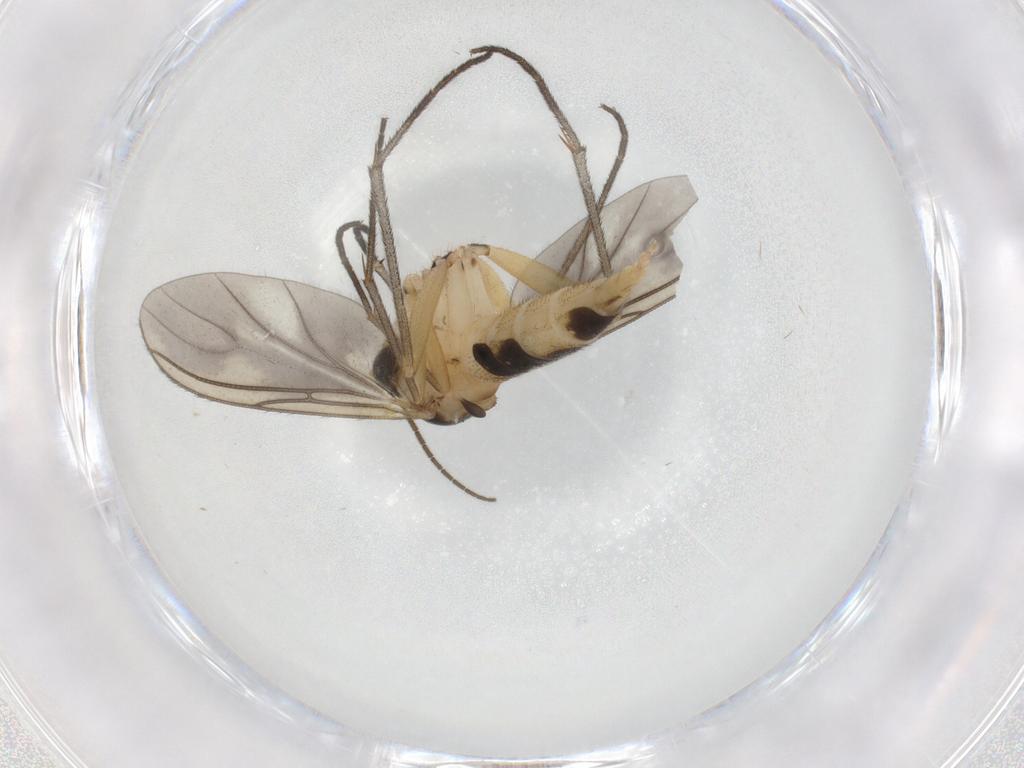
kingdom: Animalia
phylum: Arthropoda
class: Insecta
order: Diptera
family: Sciaridae
